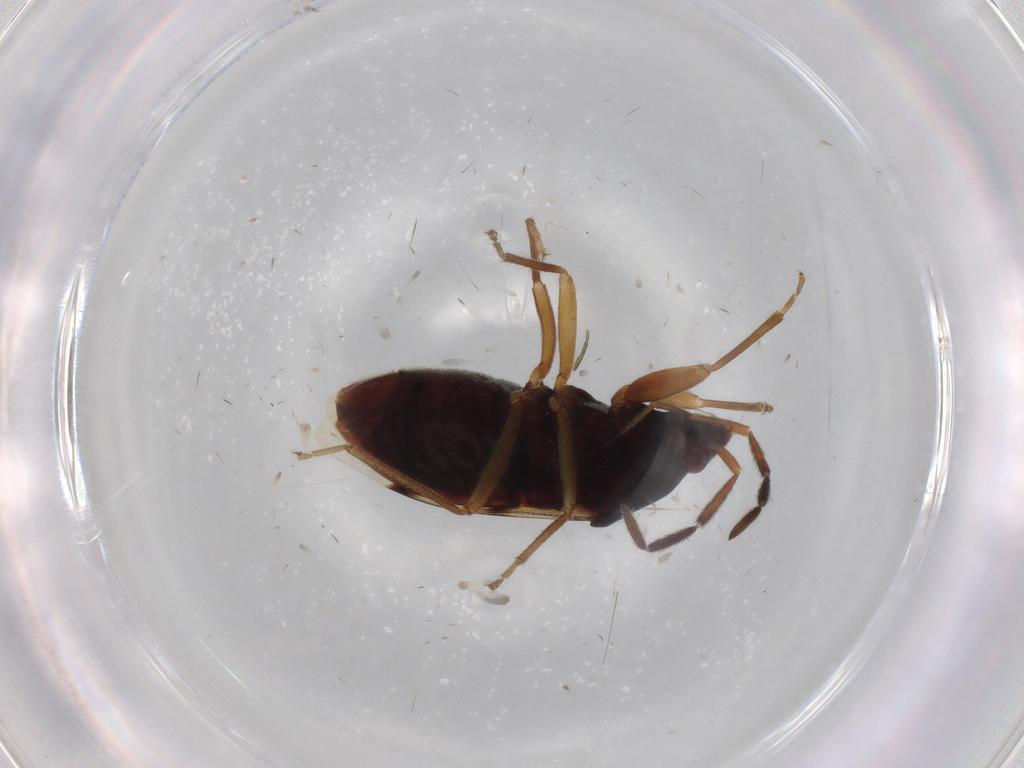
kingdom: Animalia
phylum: Arthropoda
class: Insecta
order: Hemiptera
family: Rhyparochromidae
